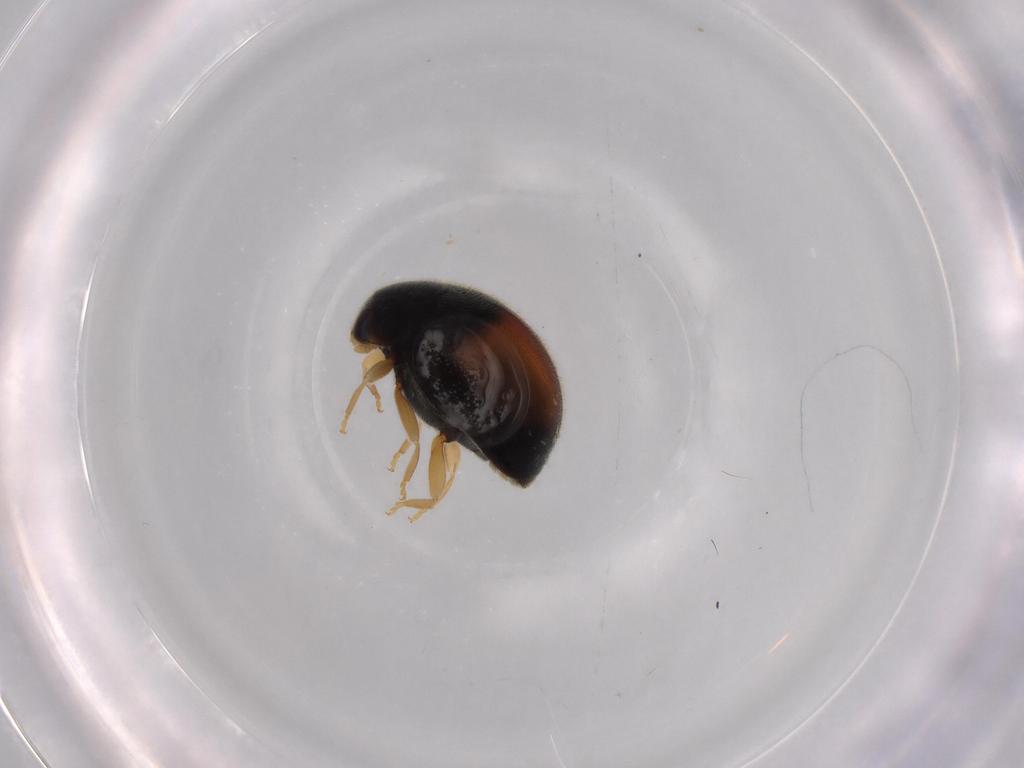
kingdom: Animalia
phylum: Arthropoda
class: Insecta
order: Coleoptera
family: Coccinellidae
